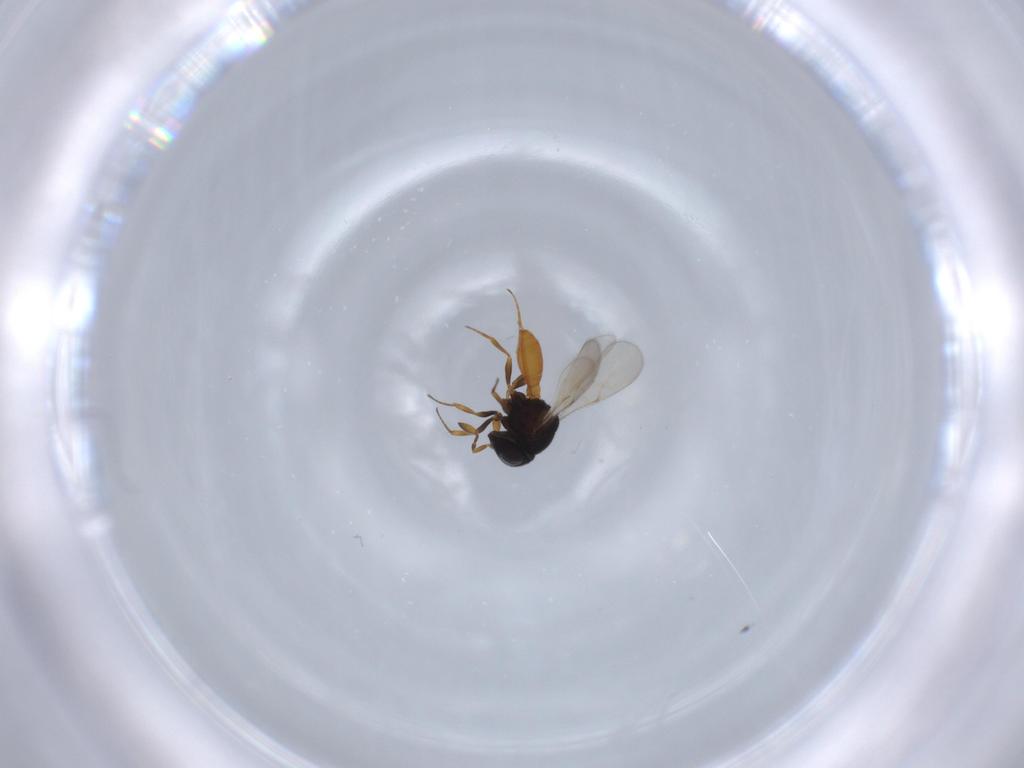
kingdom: Animalia
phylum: Arthropoda
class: Insecta
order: Hymenoptera
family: Scelionidae
